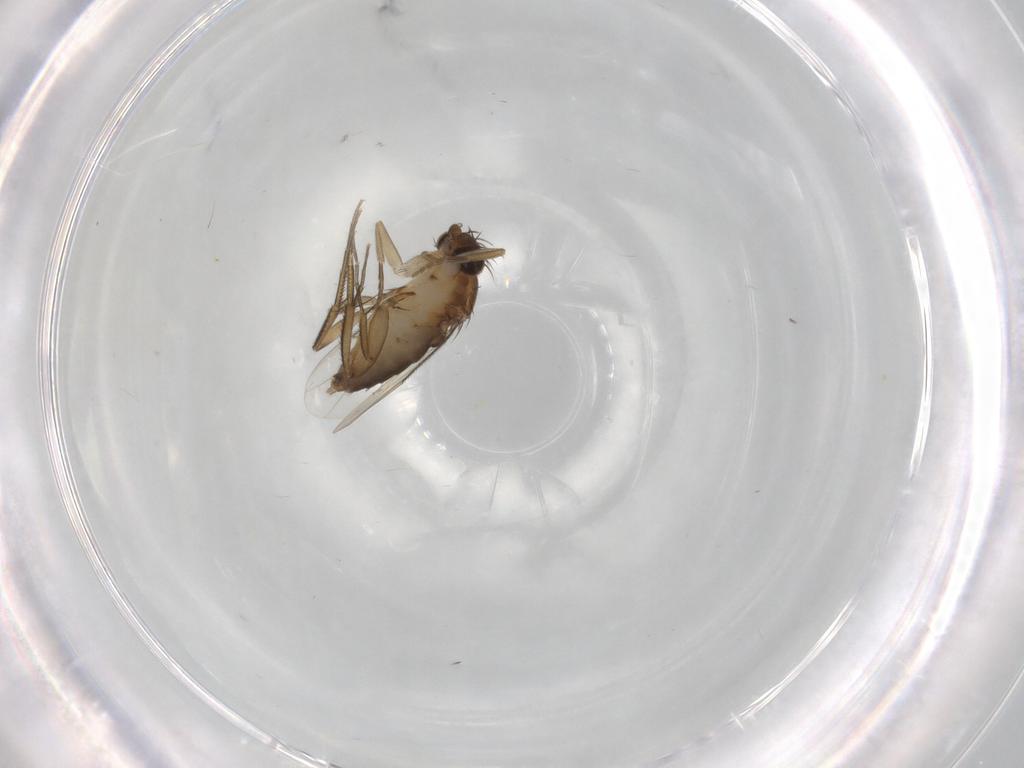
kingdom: Animalia
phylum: Arthropoda
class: Insecta
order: Diptera
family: Phoridae
